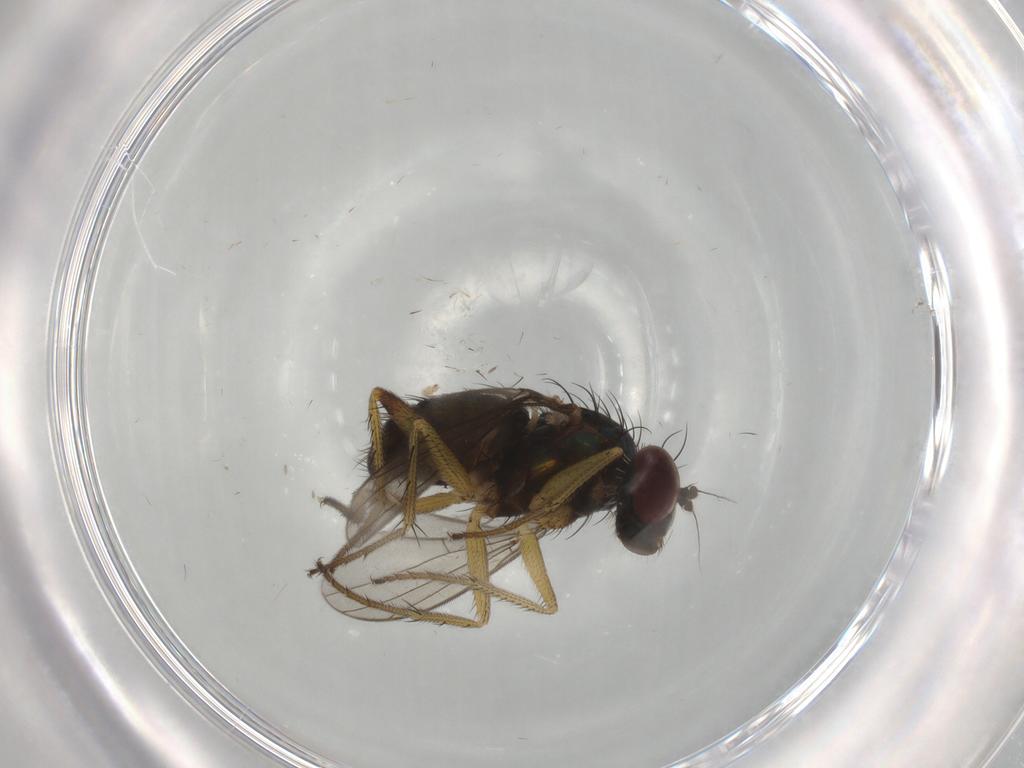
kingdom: Animalia
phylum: Arthropoda
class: Insecta
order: Diptera
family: Dolichopodidae
